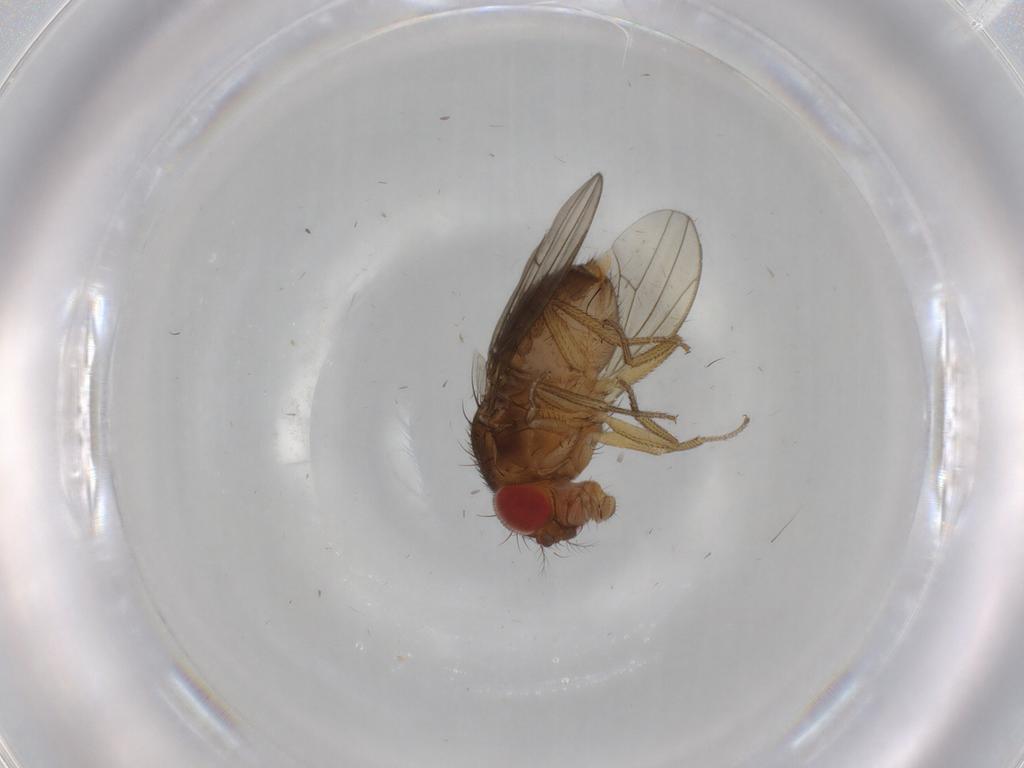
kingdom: Animalia
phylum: Arthropoda
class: Insecta
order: Diptera
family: Drosophilidae
